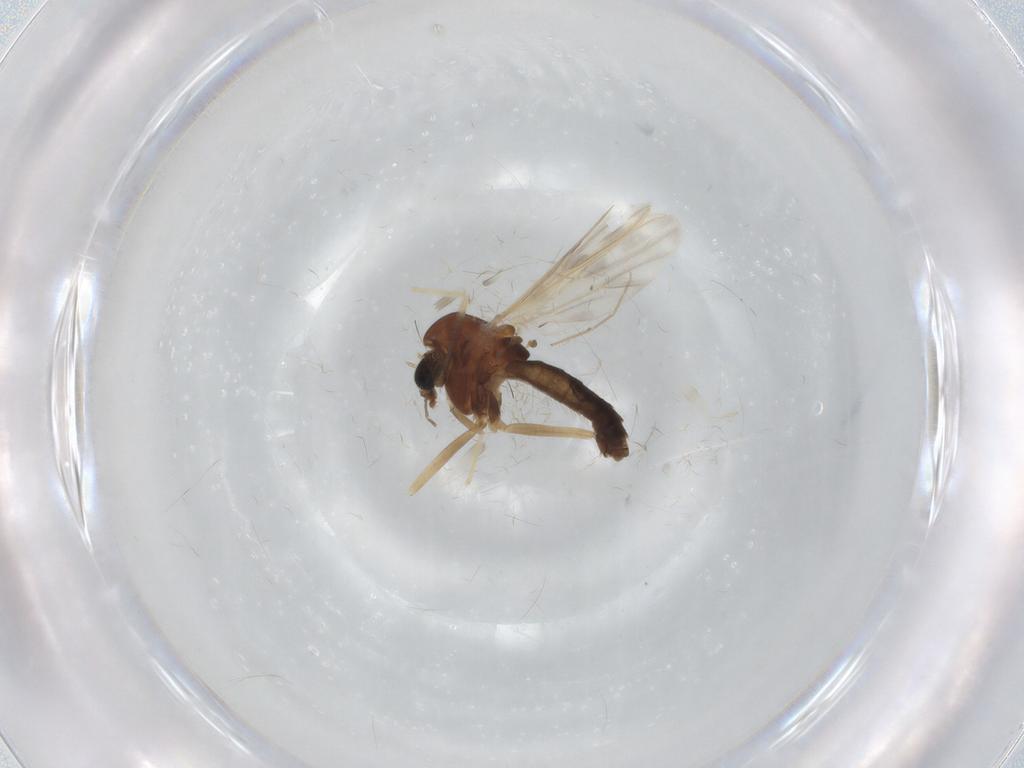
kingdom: Animalia
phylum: Arthropoda
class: Insecta
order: Diptera
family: Chironomidae
